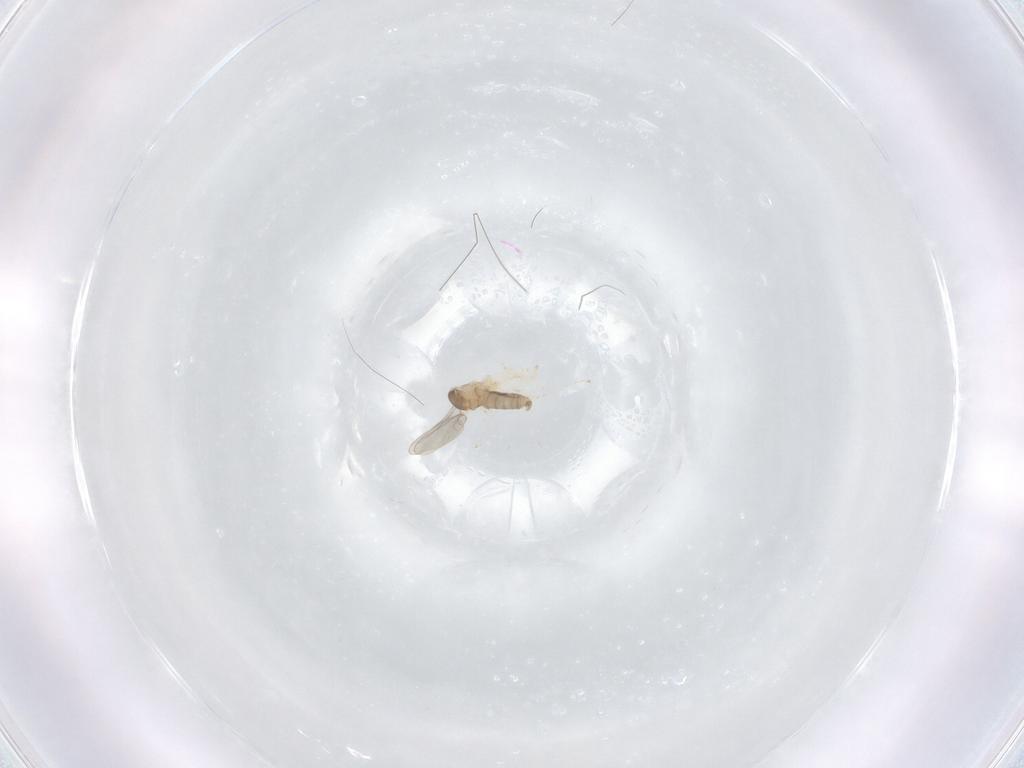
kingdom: Animalia
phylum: Arthropoda
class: Insecta
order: Diptera
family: Cecidomyiidae
